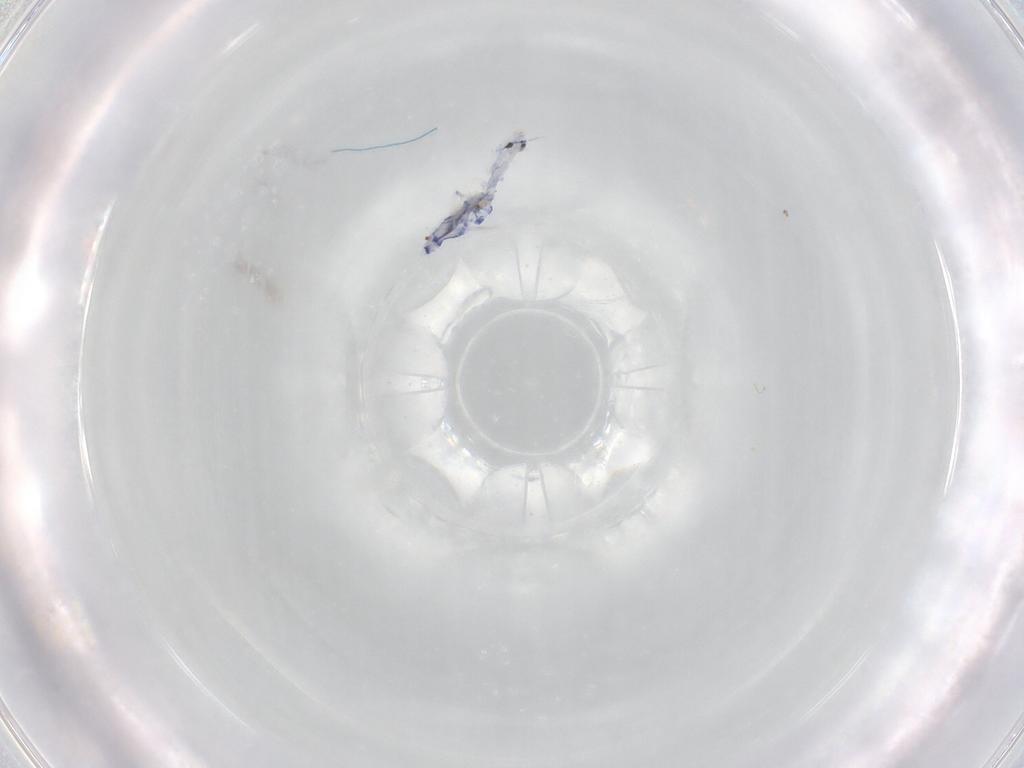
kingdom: Animalia
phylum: Arthropoda
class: Collembola
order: Entomobryomorpha
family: Entomobryidae
